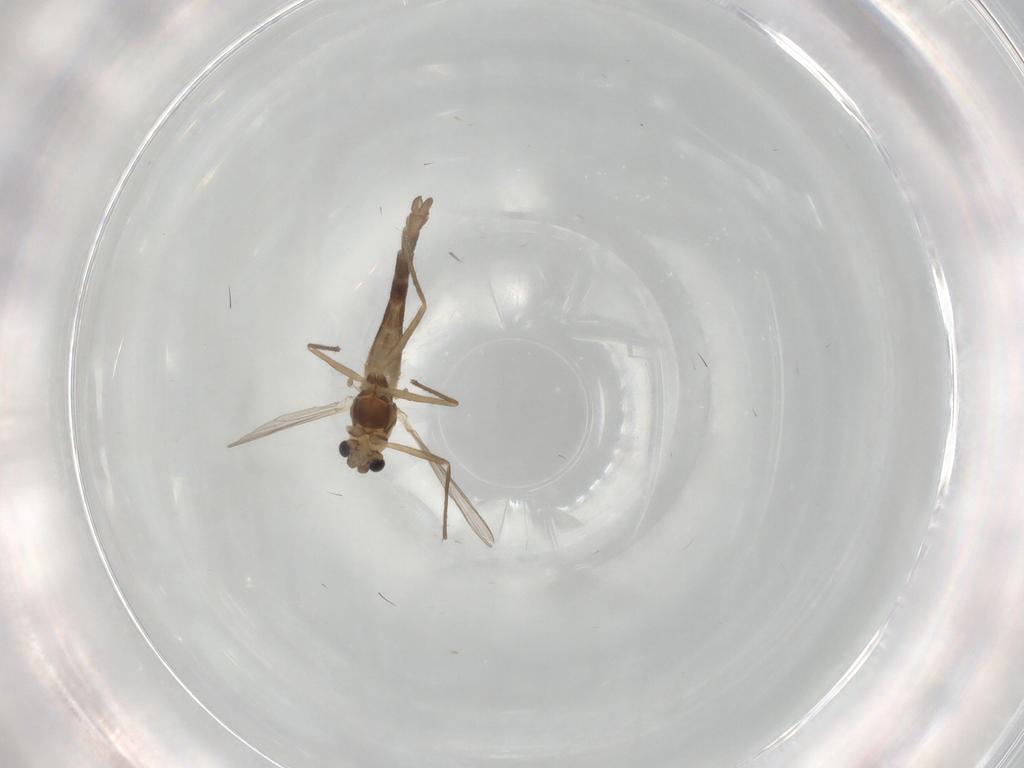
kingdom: Animalia
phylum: Arthropoda
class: Insecta
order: Diptera
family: Chironomidae
